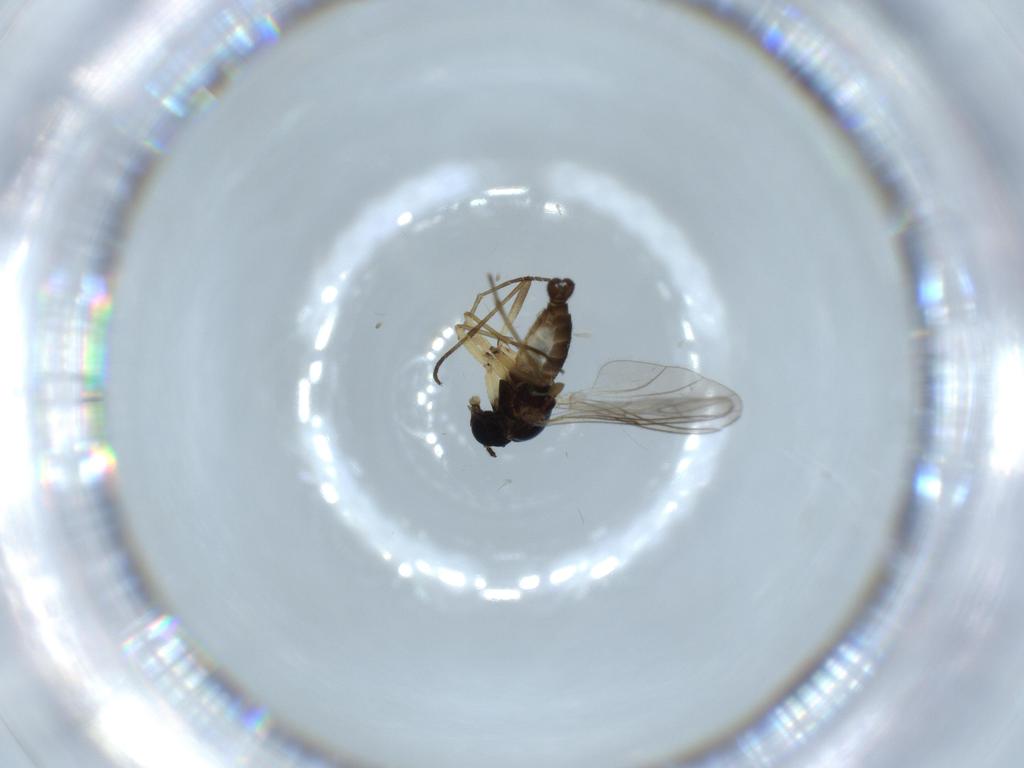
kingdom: Animalia
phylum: Arthropoda
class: Insecta
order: Diptera
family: Sciaridae
